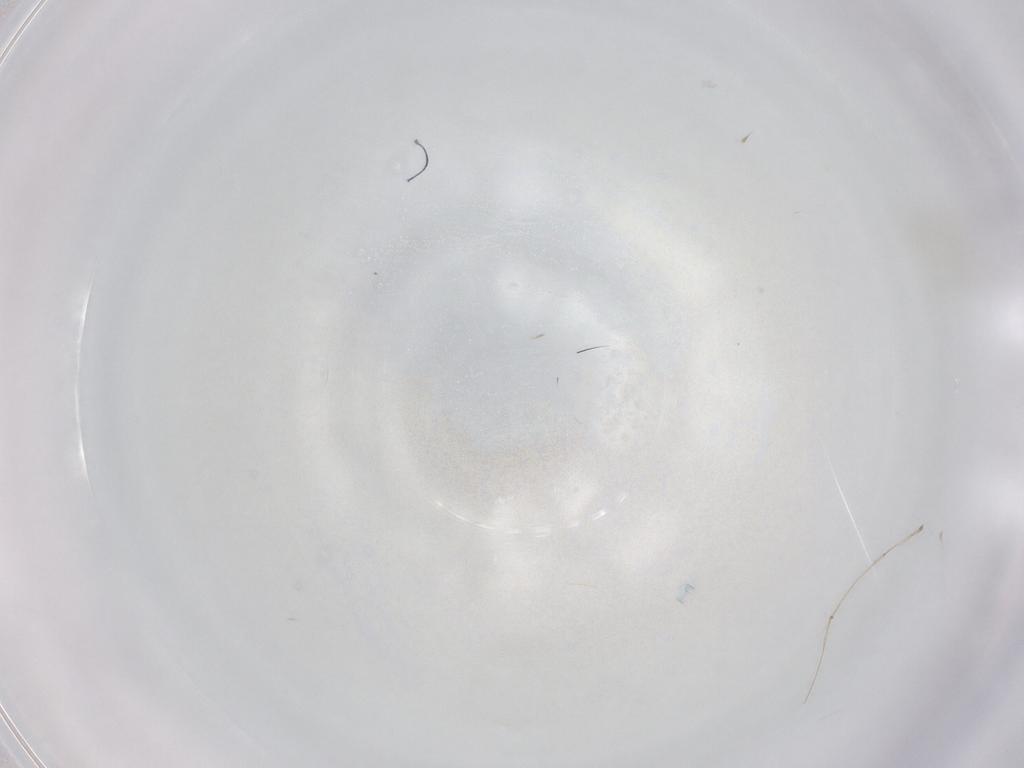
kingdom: Animalia
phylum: Arthropoda
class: Collembola
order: Entomobryomorpha
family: Entomobryidae
